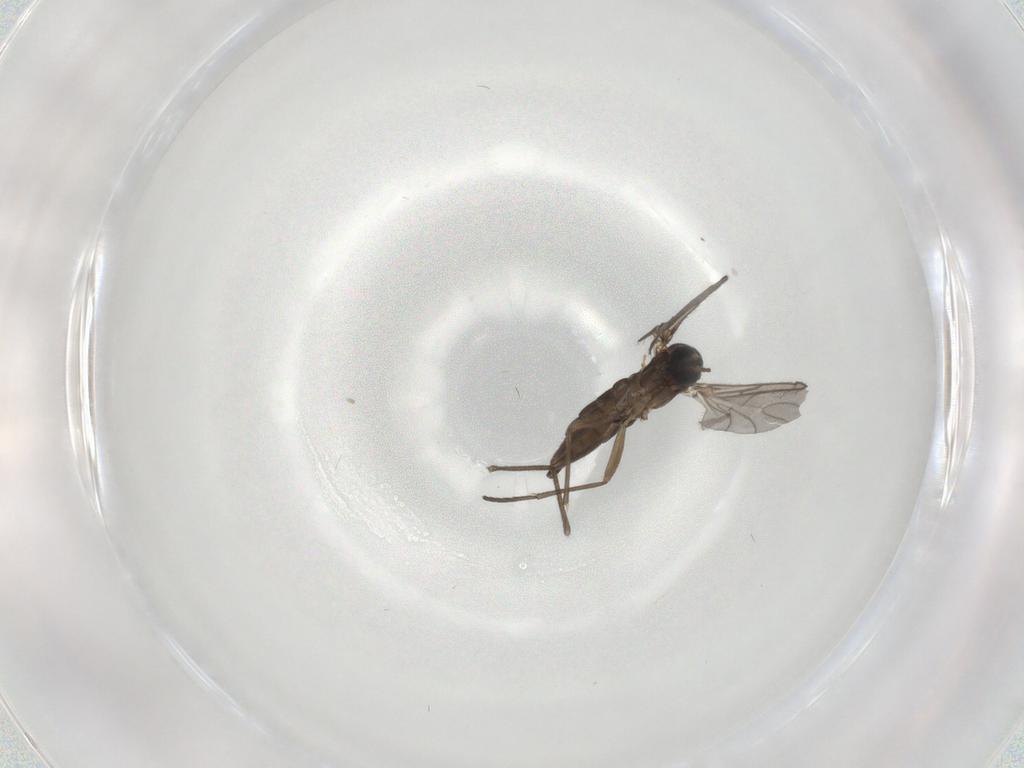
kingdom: Animalia
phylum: Arthropoda
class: Insecta
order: Diptera
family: Sciaridae
